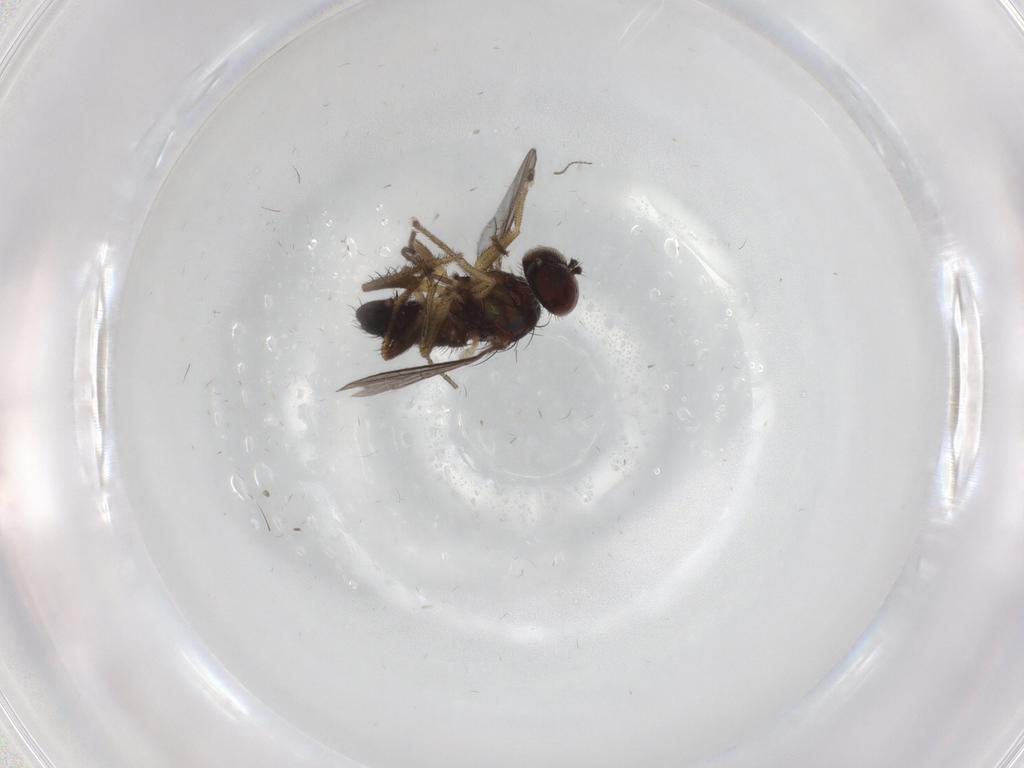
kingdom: Animalia
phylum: Arthropoda
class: Insecta
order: Diptera
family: Dolichopodidae
